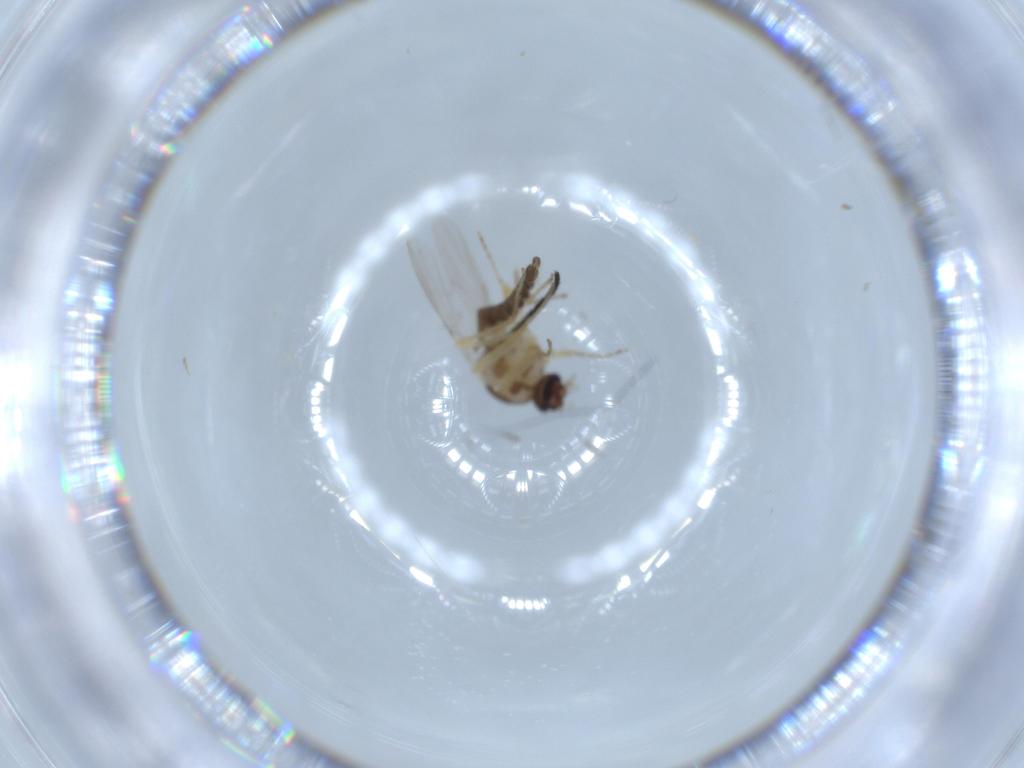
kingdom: Animalia
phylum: Arthropoda
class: Insecta
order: Diptera
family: Ceratopogonidae
